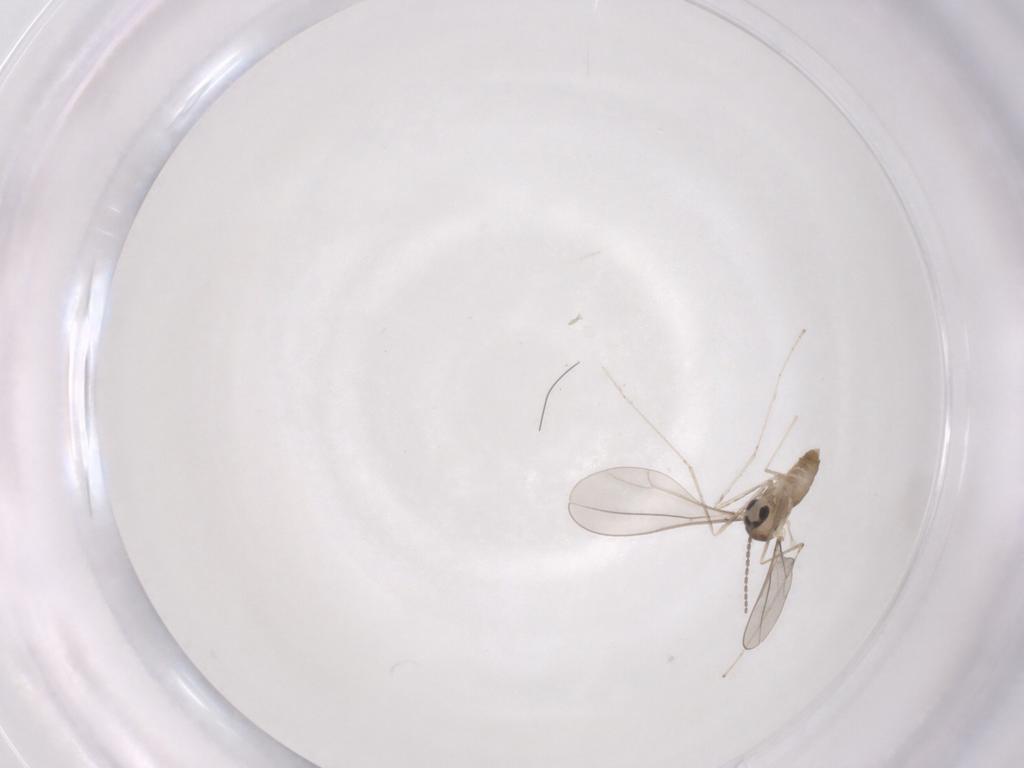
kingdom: Animalia
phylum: Arthropoda
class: Insecta
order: Diptera
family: Cecidomyiidae
